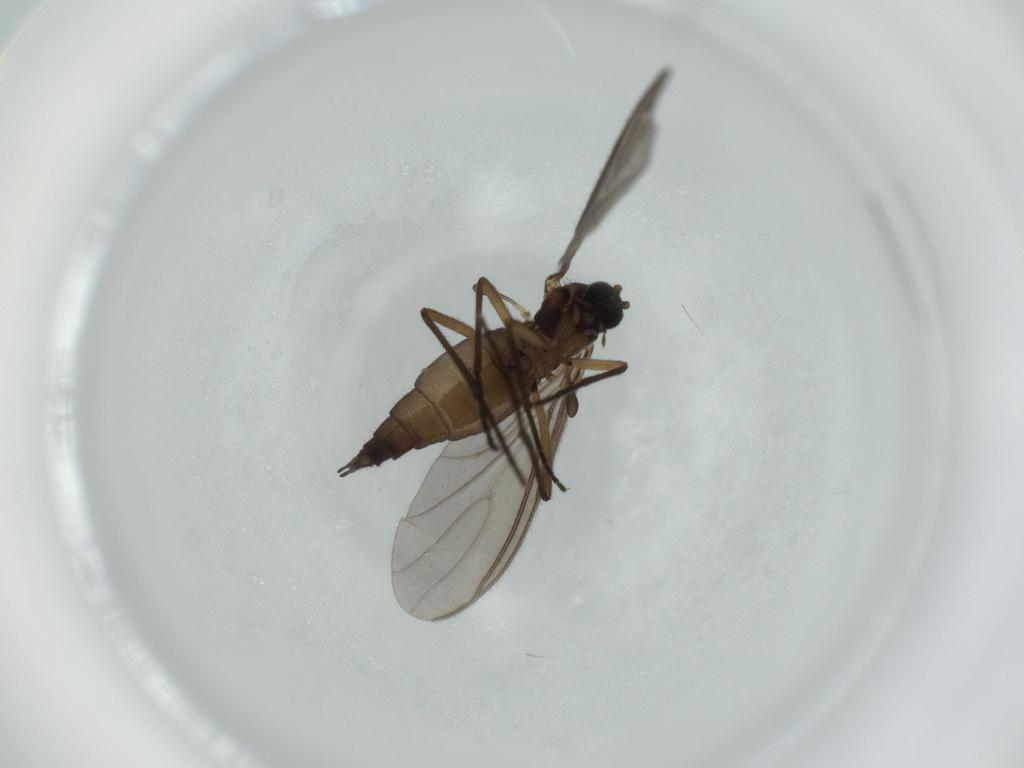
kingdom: Animalia
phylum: Arthropoda
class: Insecta
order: Diptera
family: Sciaridae
